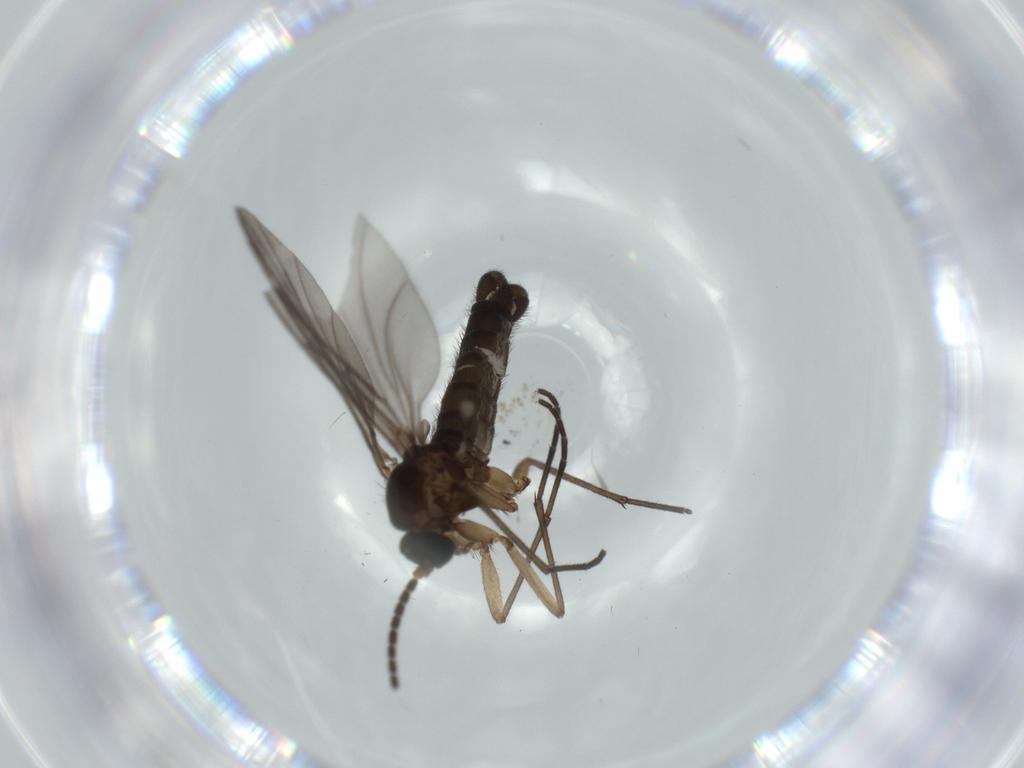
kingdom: Animalia
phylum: Arthropoda
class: Insecta
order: Diptera
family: Sciaridae
